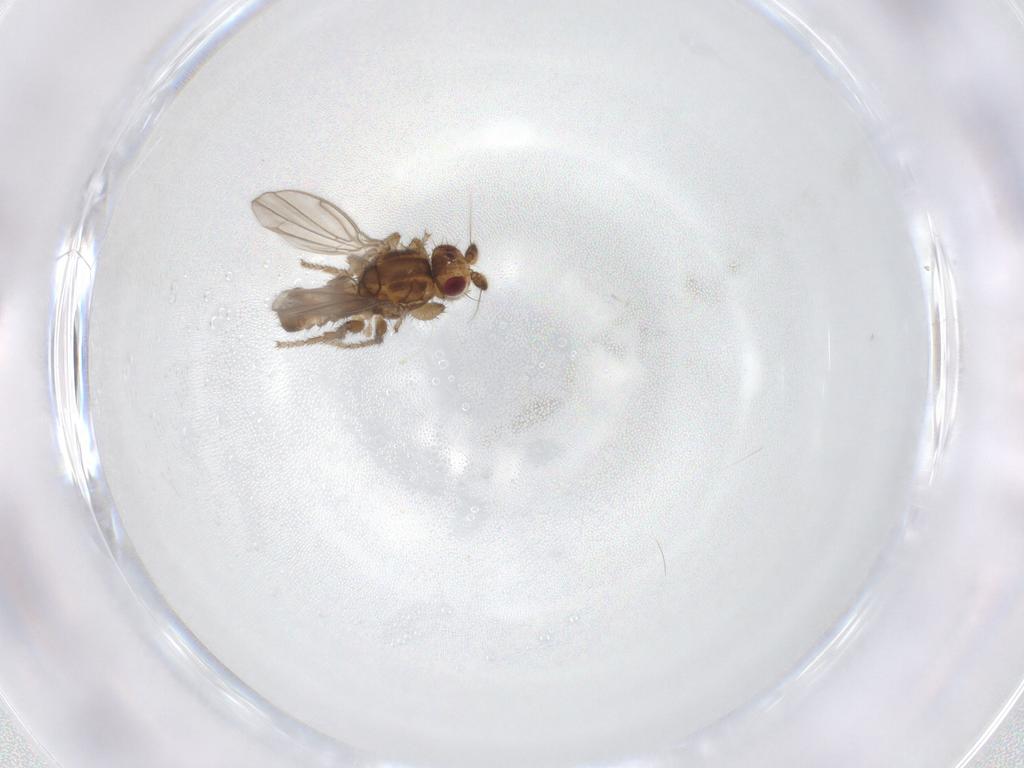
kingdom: Animalia
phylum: Arthropoda
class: Insecta
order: Diptera
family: Sphaeroceridae
